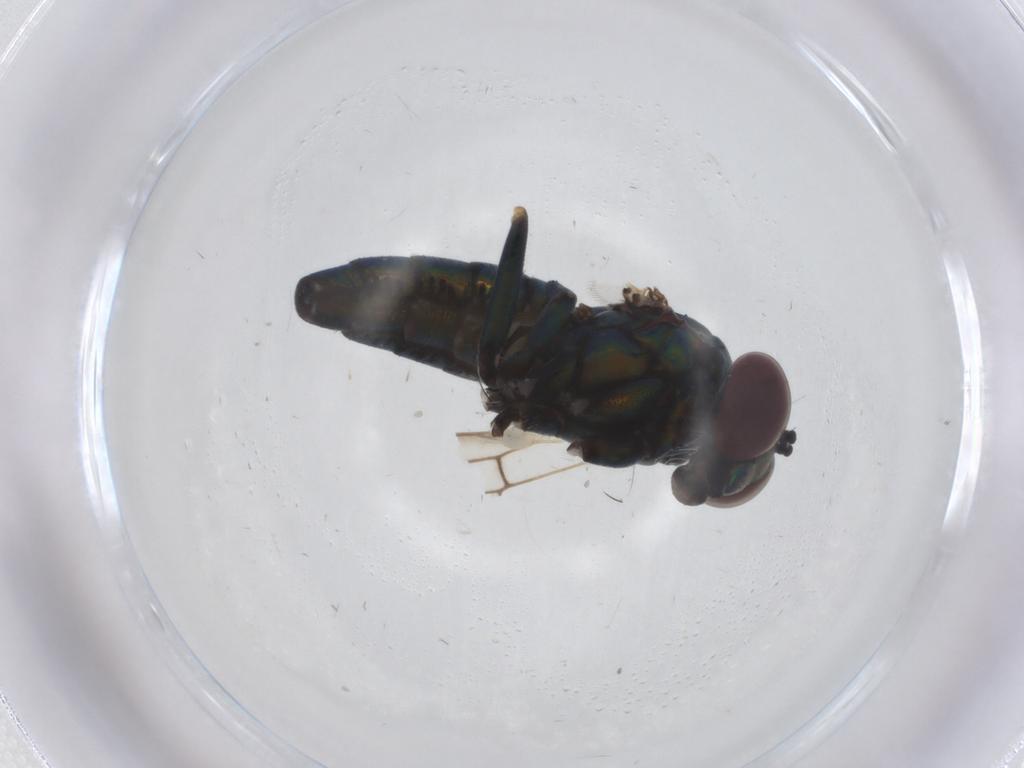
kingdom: Animalia
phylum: Arthropoda
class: Insecta
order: Diptera
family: Dolichopodidae
